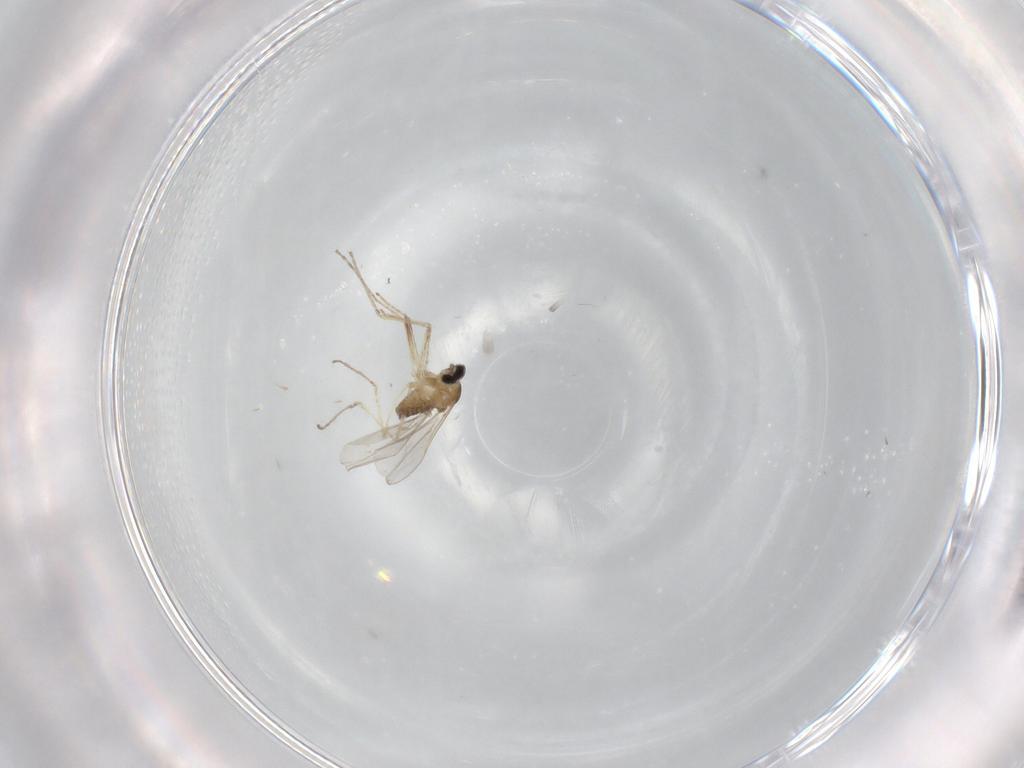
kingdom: Animalia
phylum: Arthropoda
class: Insecta
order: Diptera
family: Cecidomyiidae
